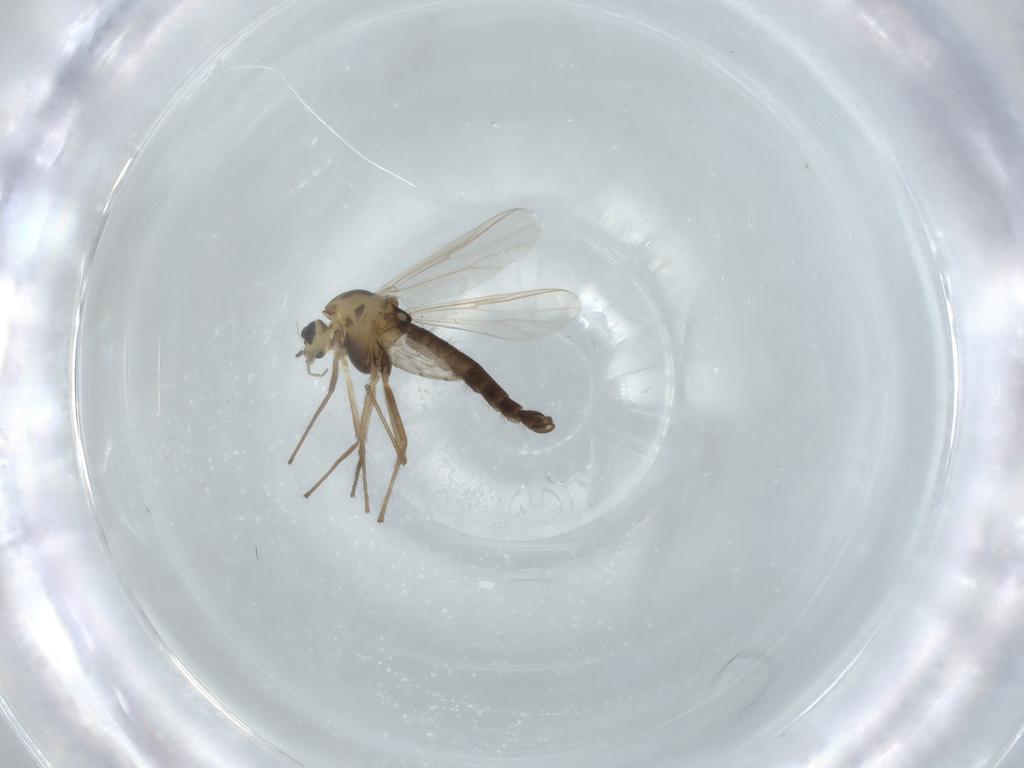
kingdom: Animalia
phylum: Arthropoda
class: Insecta
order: Diptera
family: Chironomidae
